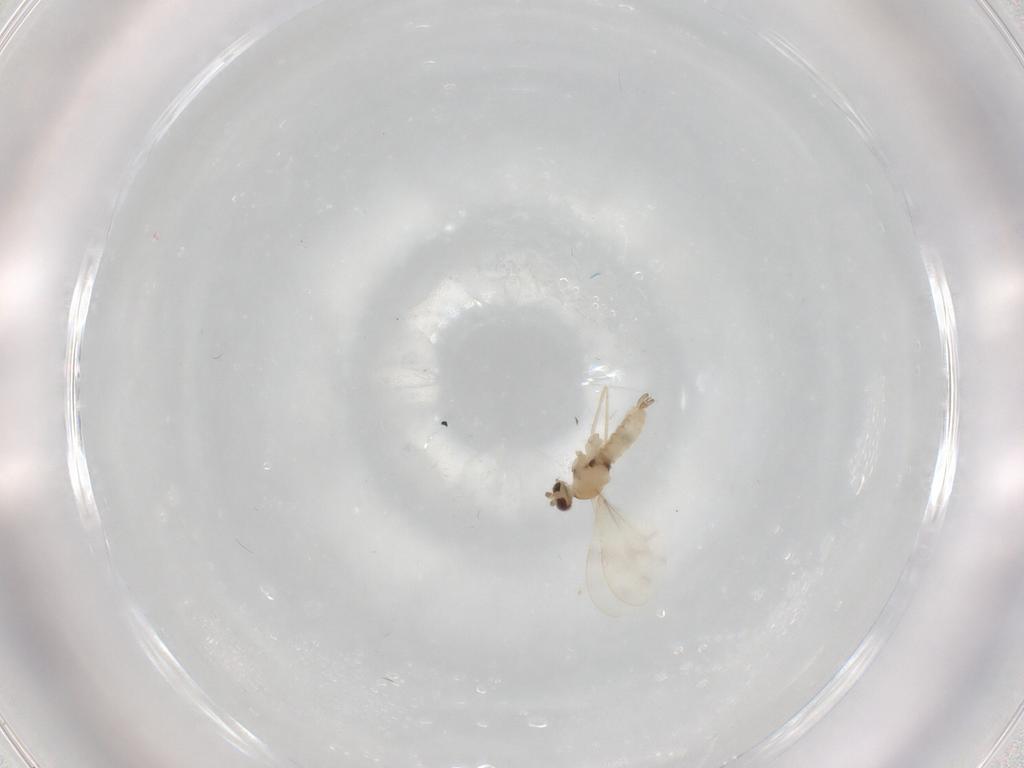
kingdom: Animalia
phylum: Arthropoda
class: Insecta
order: Diptera
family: Cecidomyiidae
